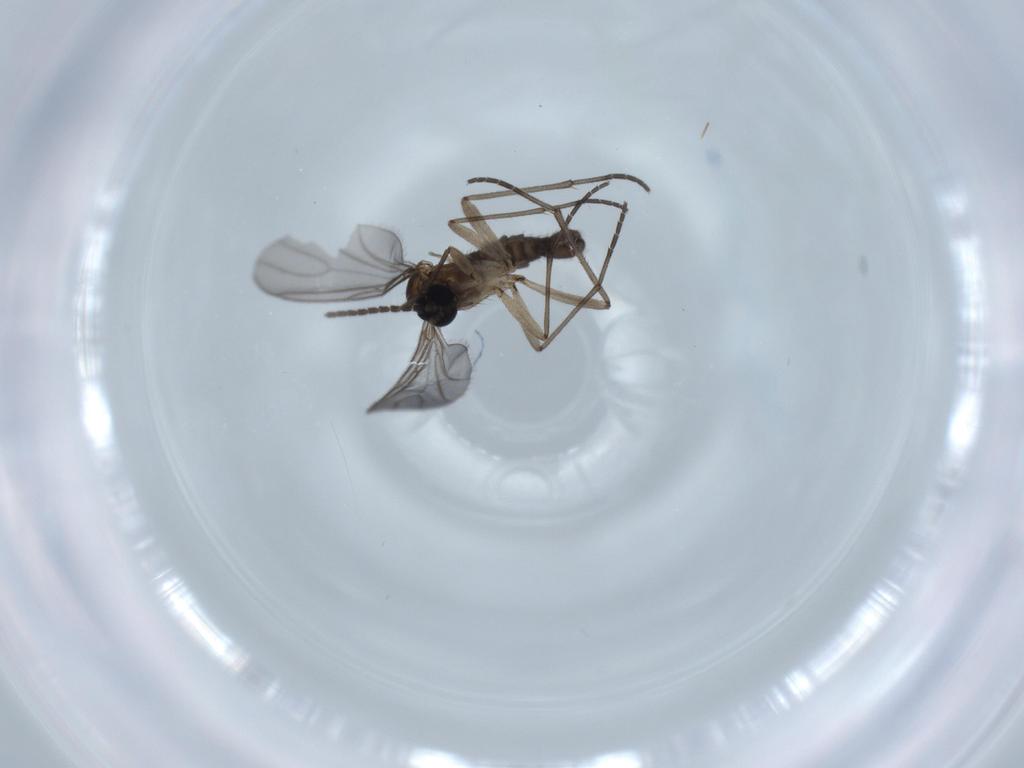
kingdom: Animalia
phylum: Arthropoda
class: Insecta
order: Diptera
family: Sciaridae
